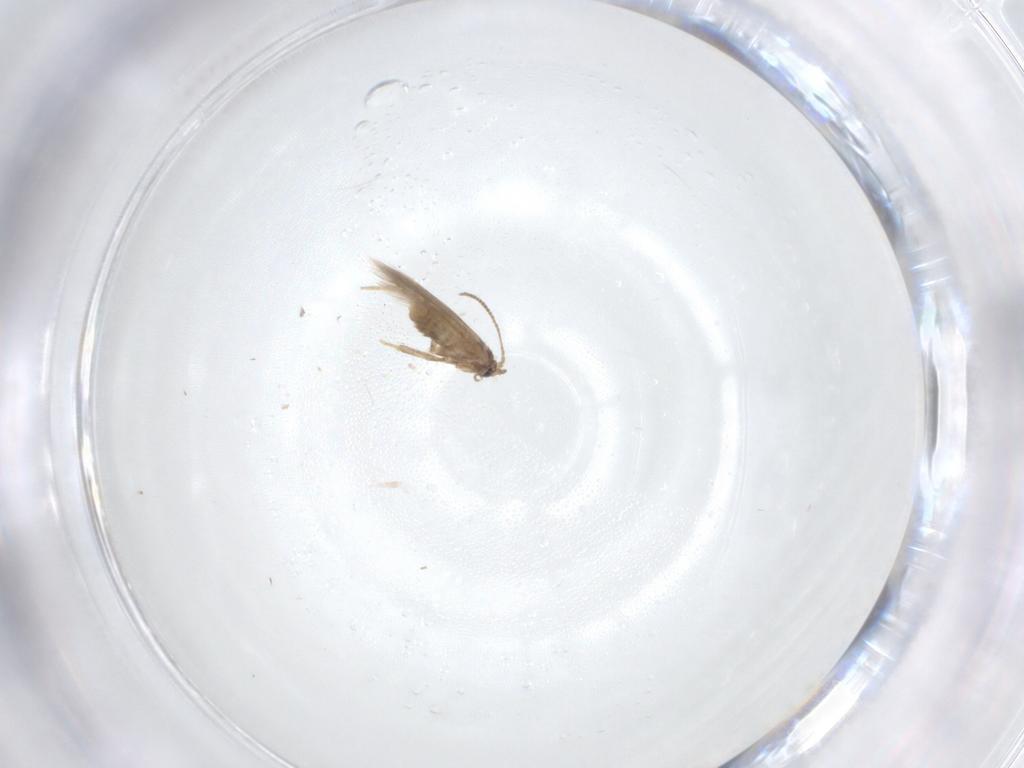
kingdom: Animalia
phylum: Arthropoda
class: Insecta
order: Lepidoptera
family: Nepticulidae
